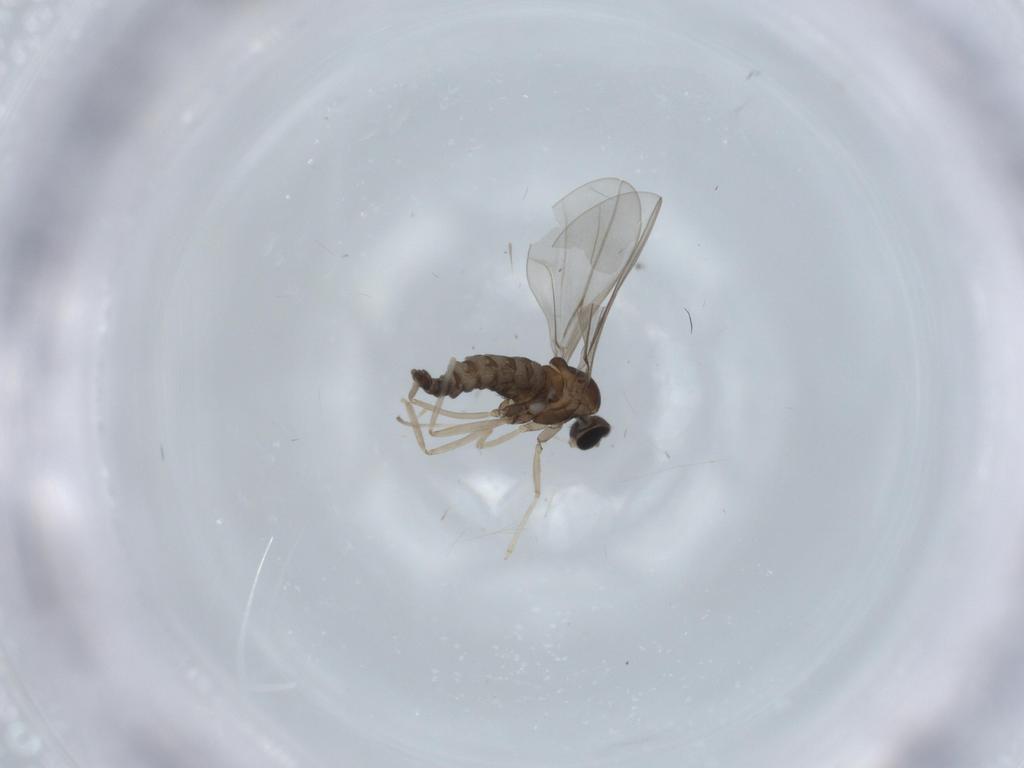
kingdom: Animalia
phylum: Arthropoda
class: Insecta
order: Diptera
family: Cecidomyiidae
